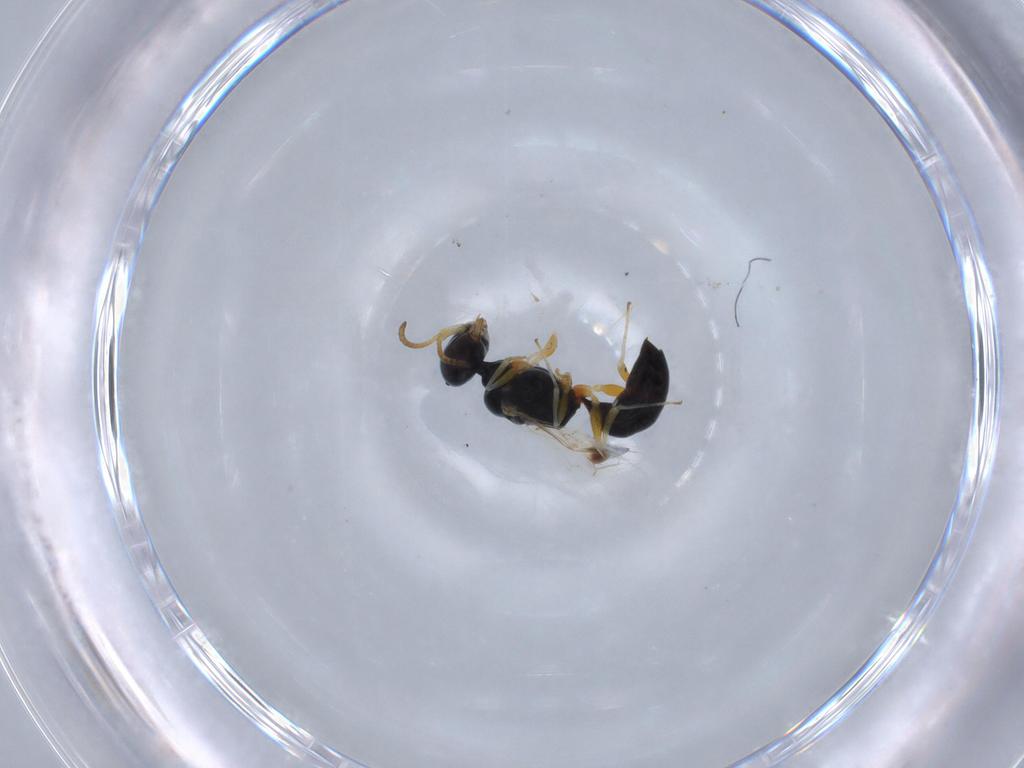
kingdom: Animalia
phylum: Arthropoda
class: Insecta
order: Hymenoptera
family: Pemphredonidae
